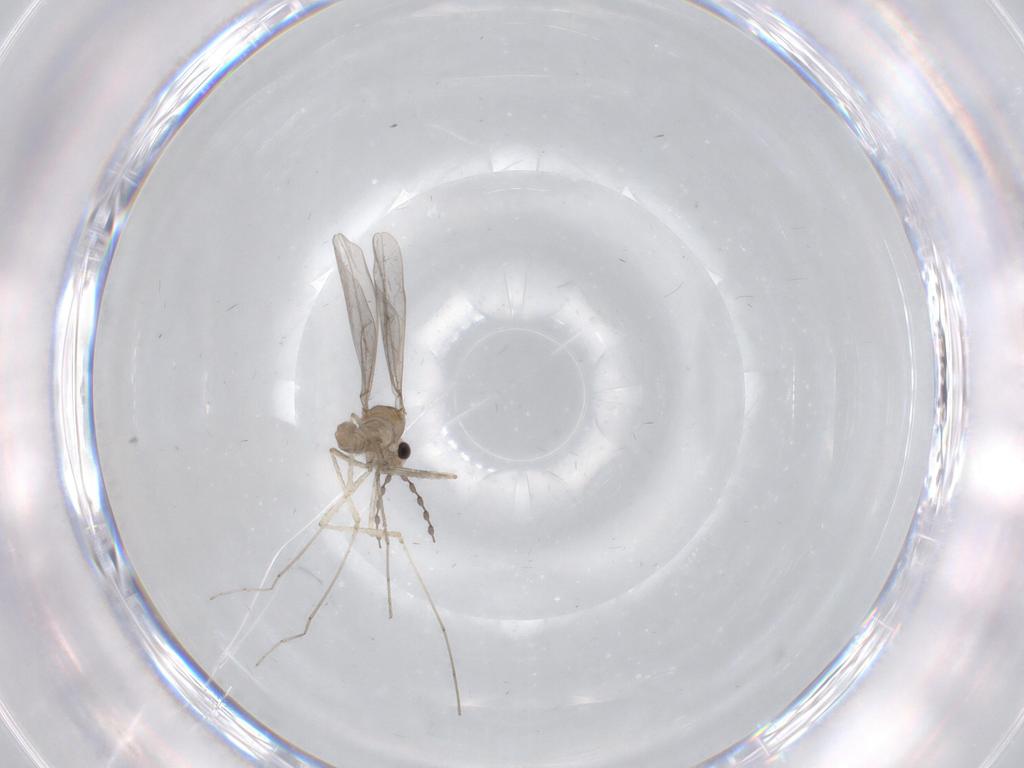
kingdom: Animalia
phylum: Arthropoda
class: Insecta
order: Diptera
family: Cecidomyiidae
